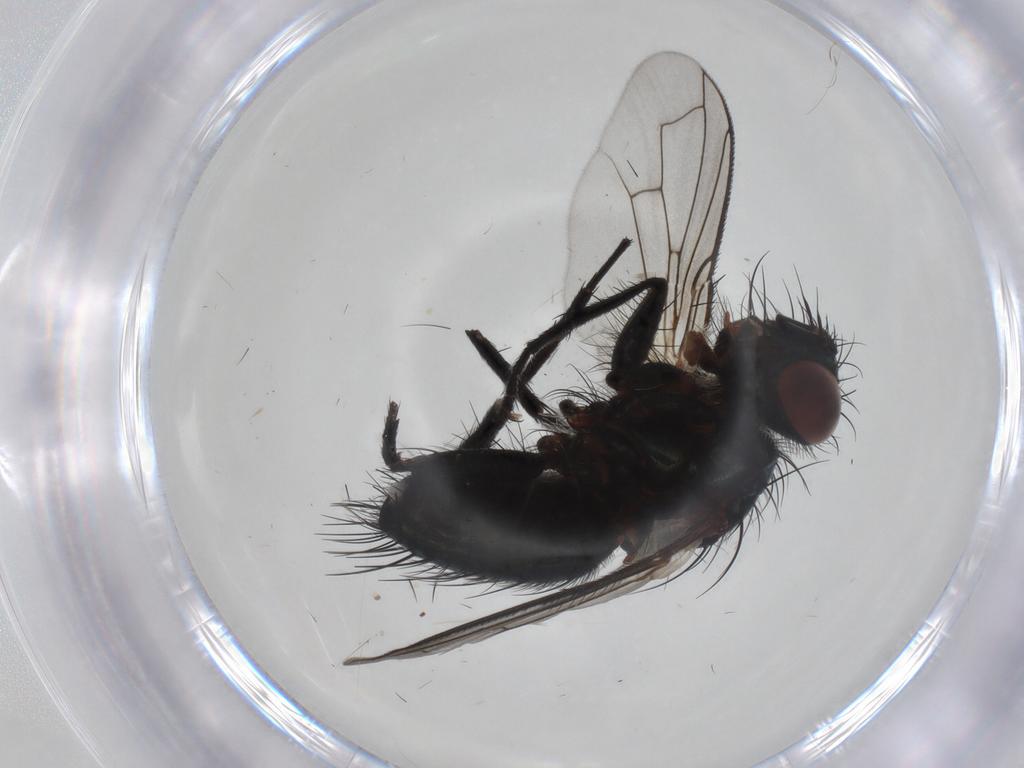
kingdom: Animalia
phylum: Arthropoda
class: Insecta
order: Diptera
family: Tachinidae
